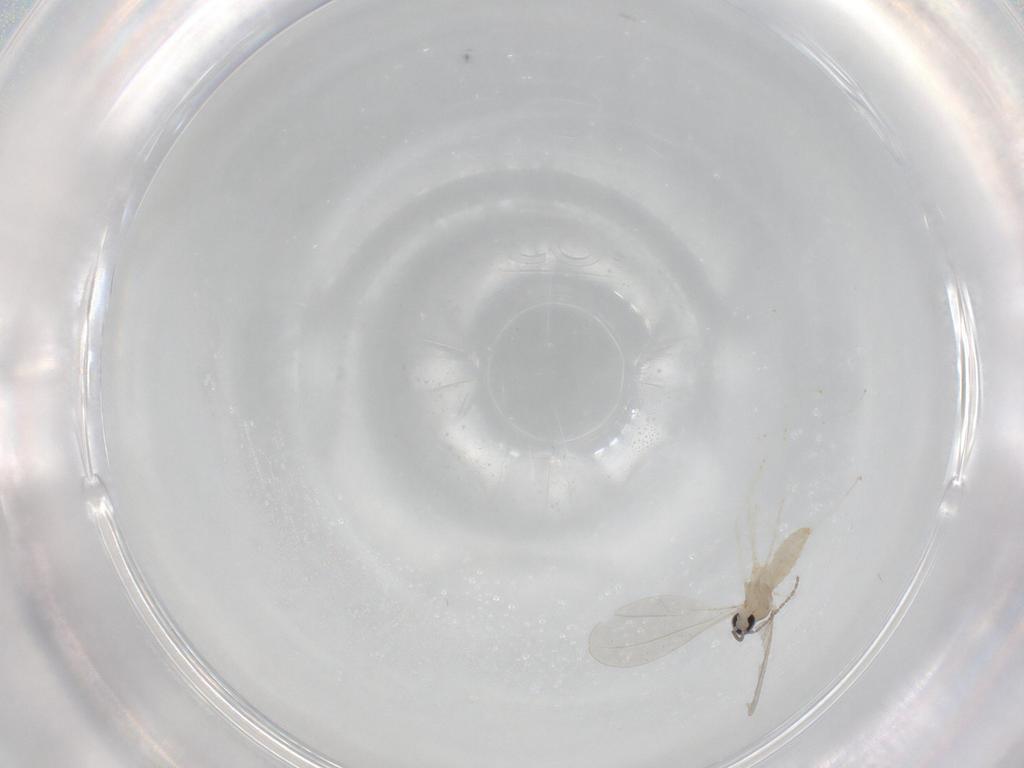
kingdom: Animalia
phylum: Arthropoda
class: Insecta
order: Diptera
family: Cecidomyiidae
